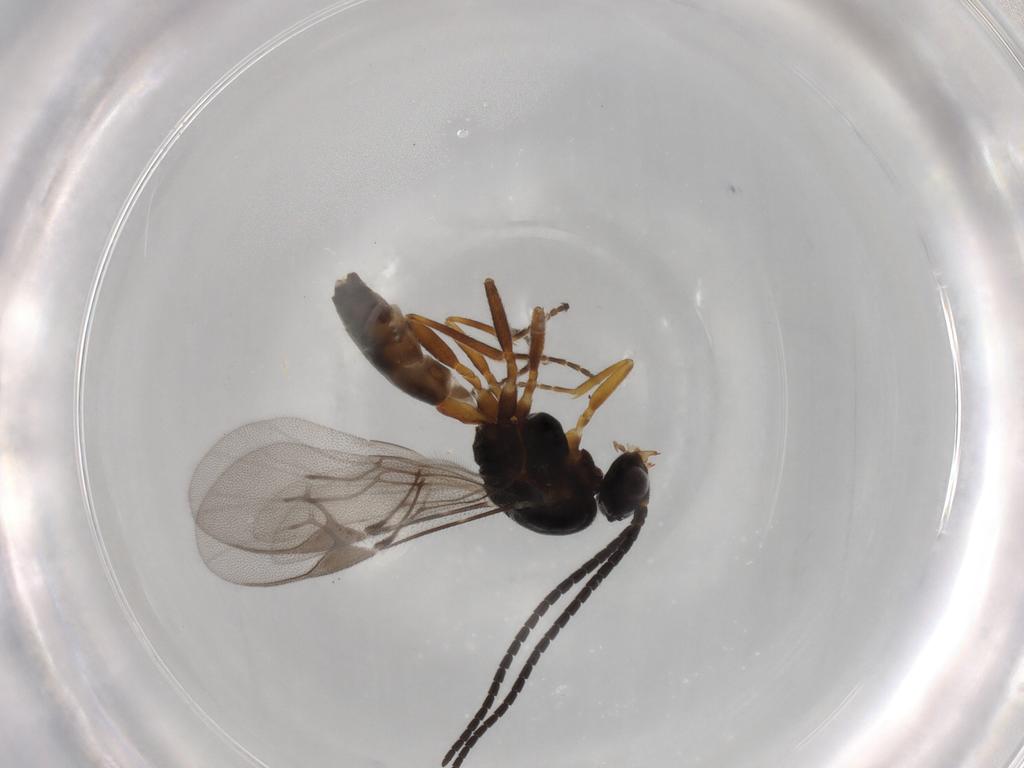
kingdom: Animalia
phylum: Arthropoda
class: Insecta
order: Hymenoptera
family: Braconidae
